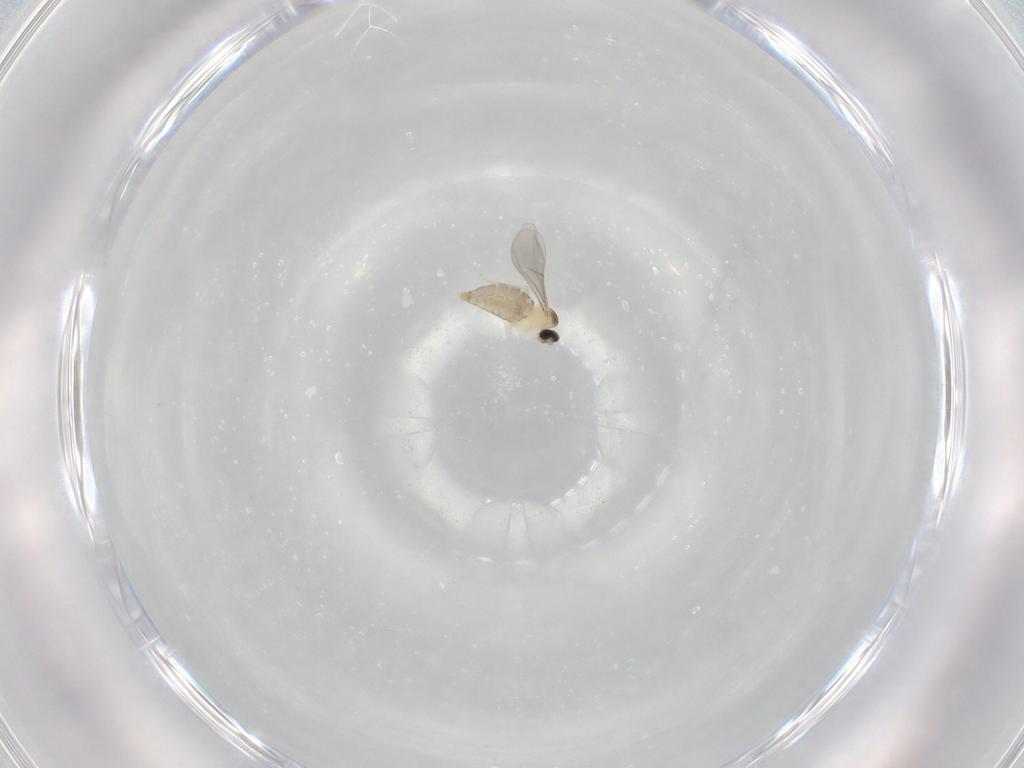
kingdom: Animalia
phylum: Arthropoda
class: Insecta
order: Diptera
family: Cecidomyiidae
